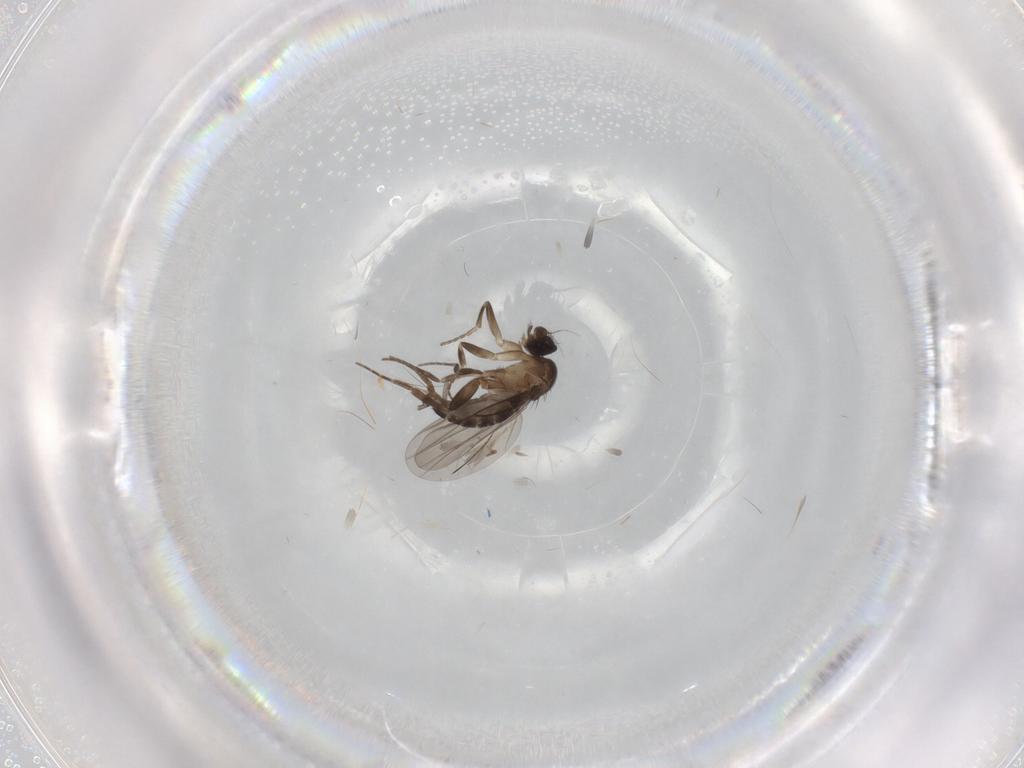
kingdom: Animalia
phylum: Arthropoda
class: Insecta
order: Diptera
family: Phoridae
